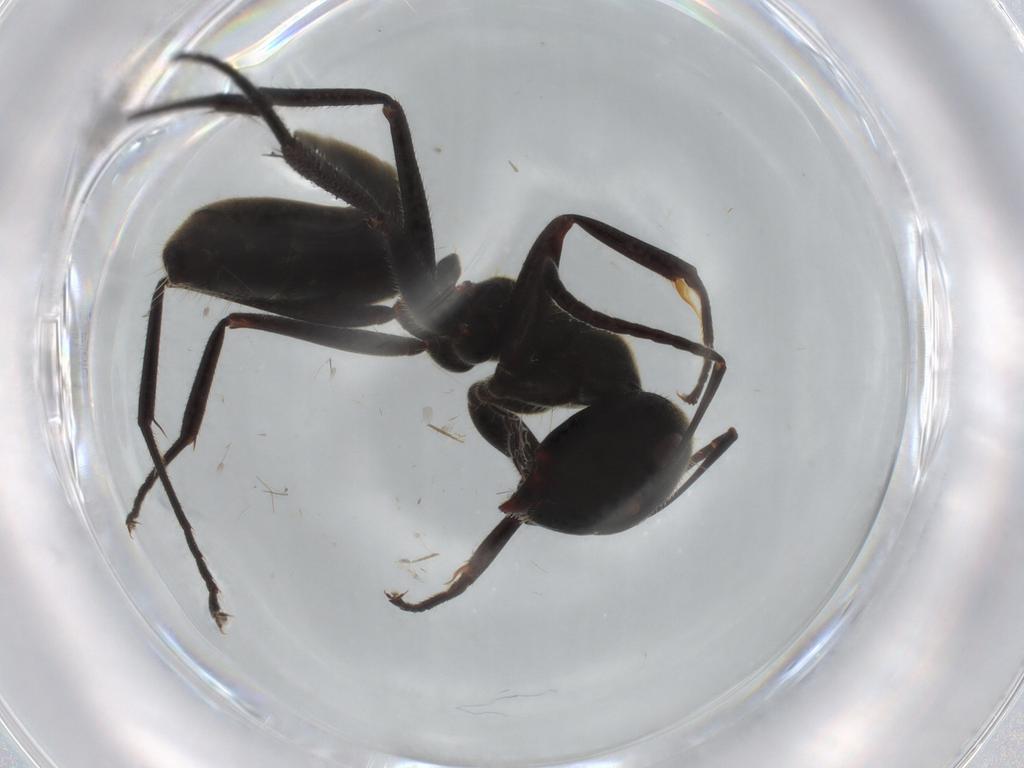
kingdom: Animalia
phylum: Arthropoda
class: Insecta
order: Hymenoptera
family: Formicidae
